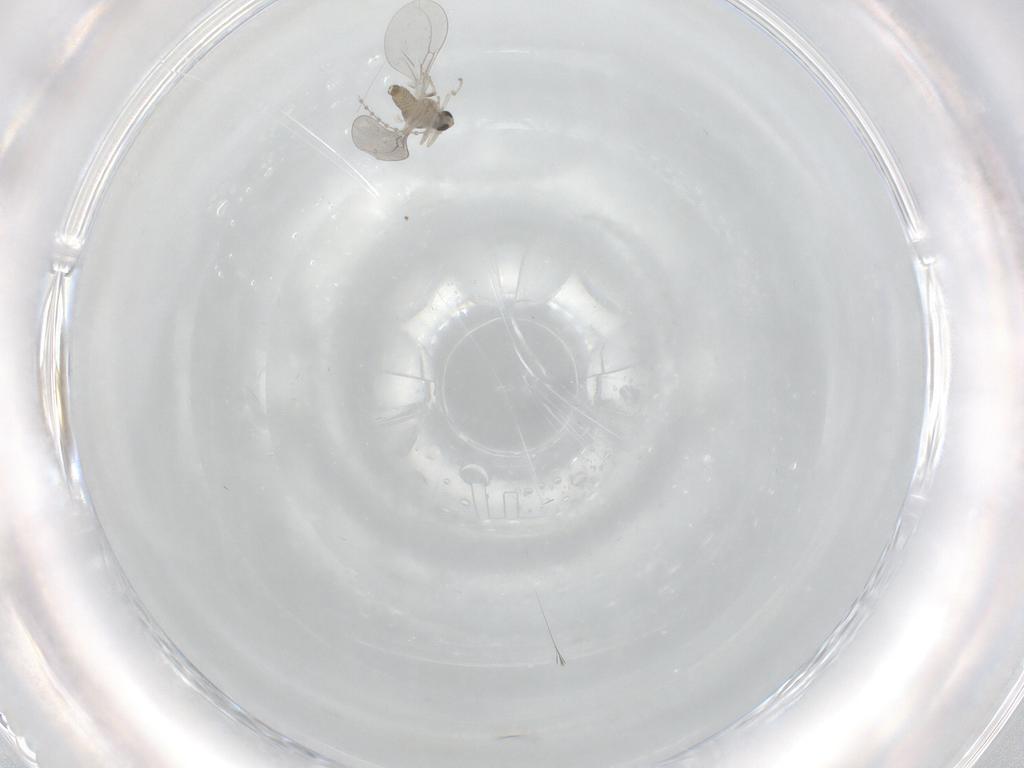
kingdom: Animalia
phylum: Arthropoda
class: Insecta
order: Diptera
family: Cecidomyiidae
